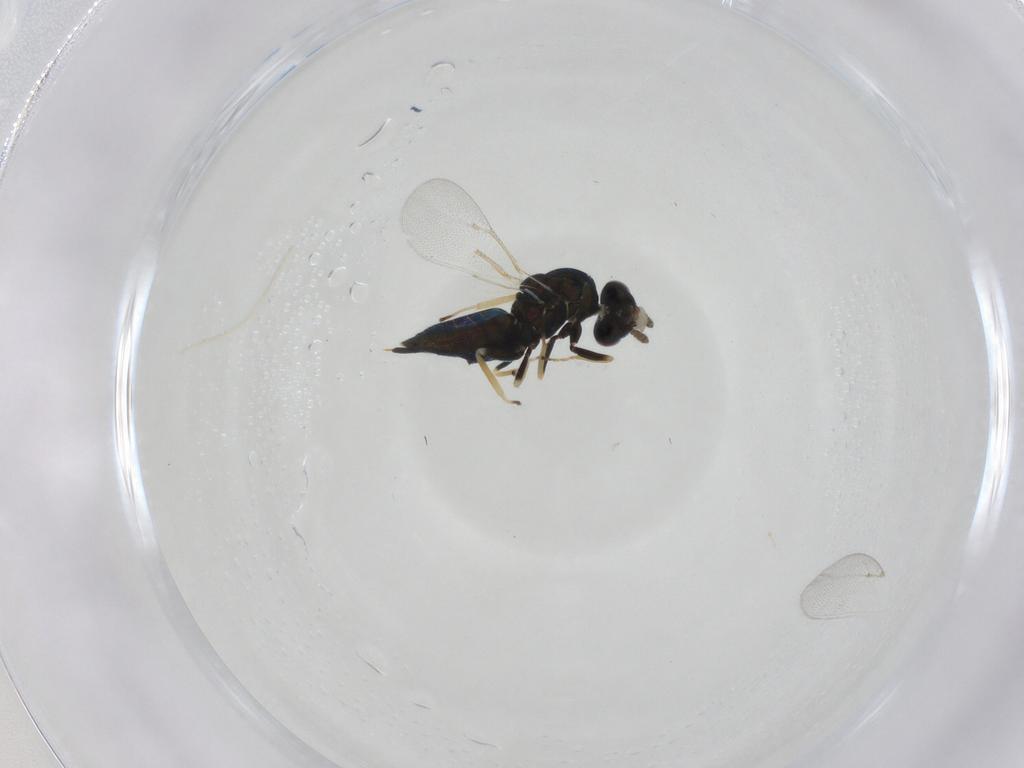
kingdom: Animalia
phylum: Arthropoda
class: Insecta
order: Hymenoptera
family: Eulophidae
